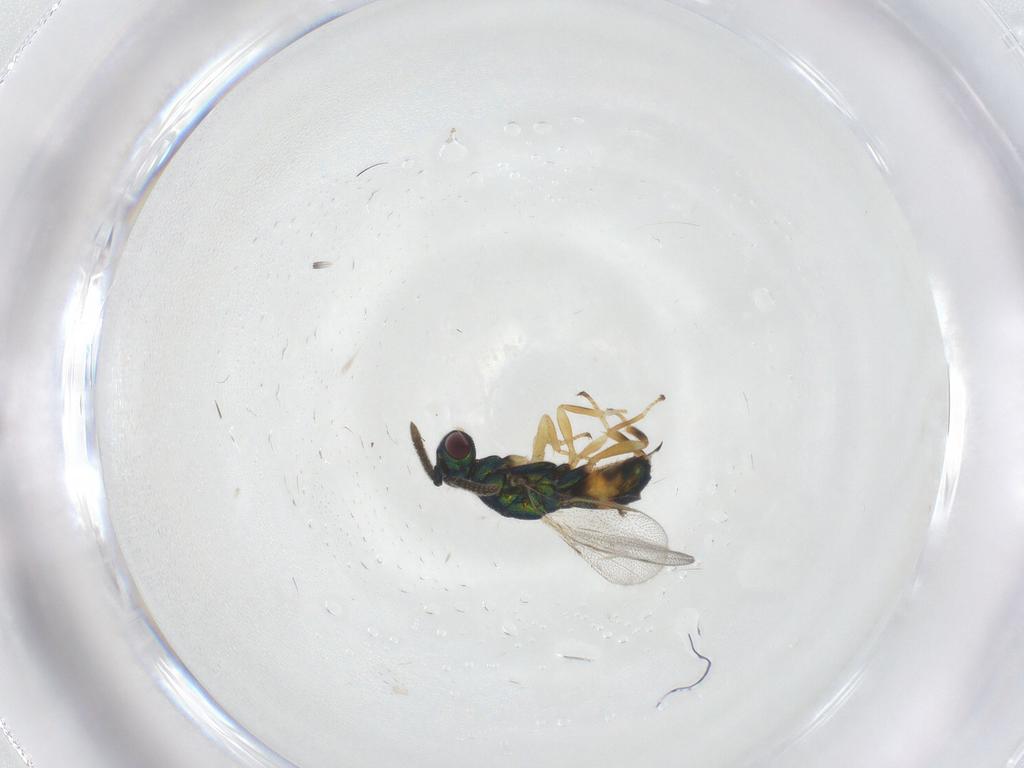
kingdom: Animalia
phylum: Arthropoda
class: Insecta
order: Hymenoptera
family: Torymidae
